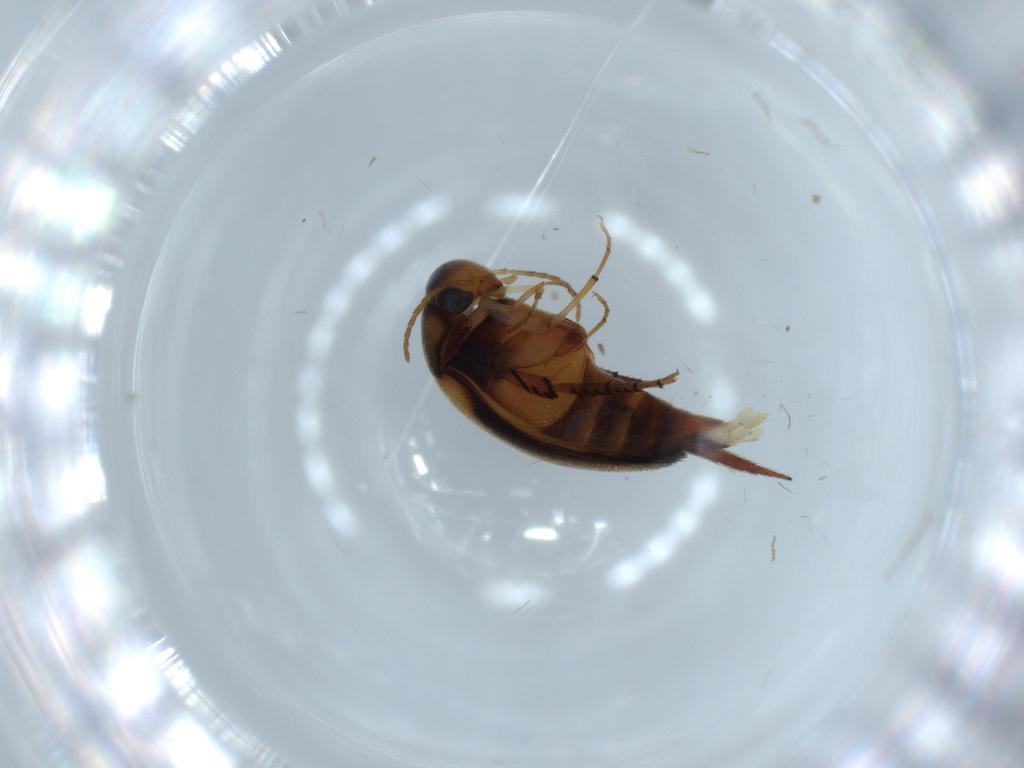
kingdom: Animalia
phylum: Arthropoda
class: Insecta
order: Coleoptera
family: Mordellidae
